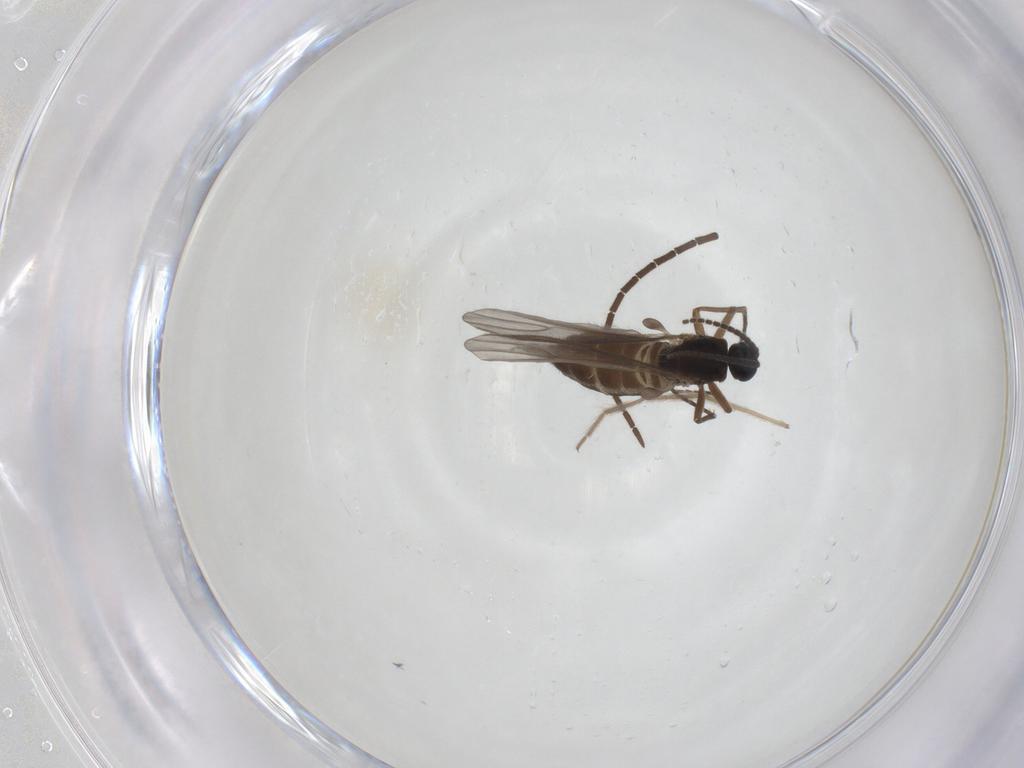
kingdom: Animalia
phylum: Arthropoda
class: Insecta
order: Diptera
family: Sciaridae
